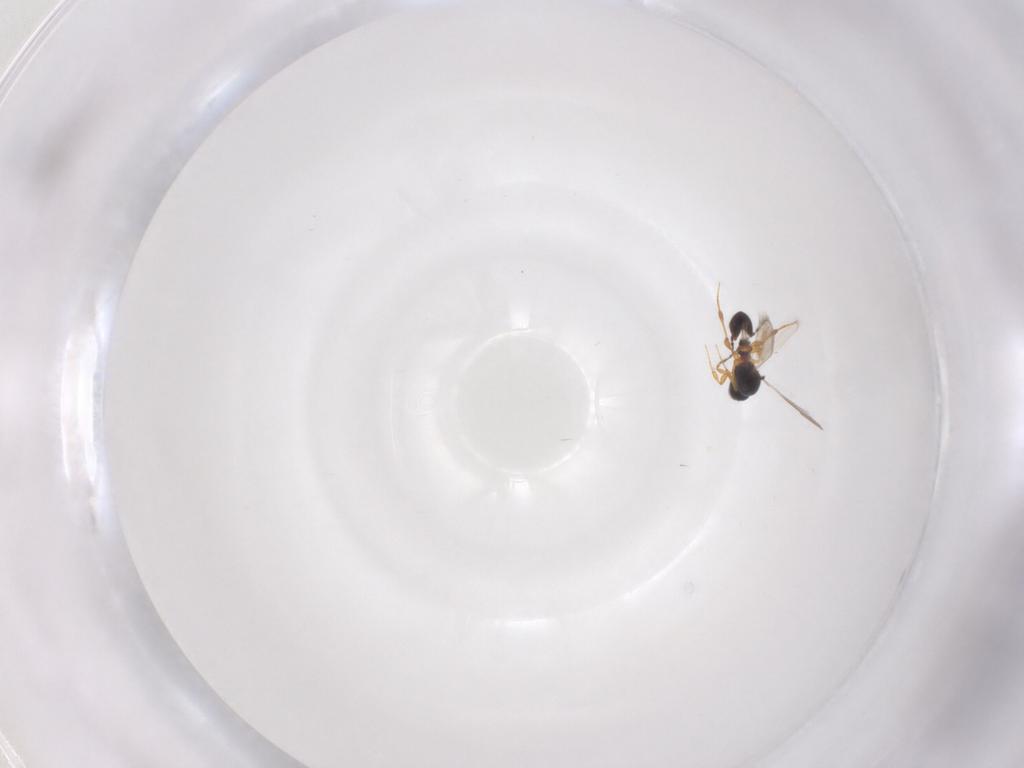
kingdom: Animalia
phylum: Arthropoda
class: Insecta
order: Hymenoptera
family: Platygastridae
